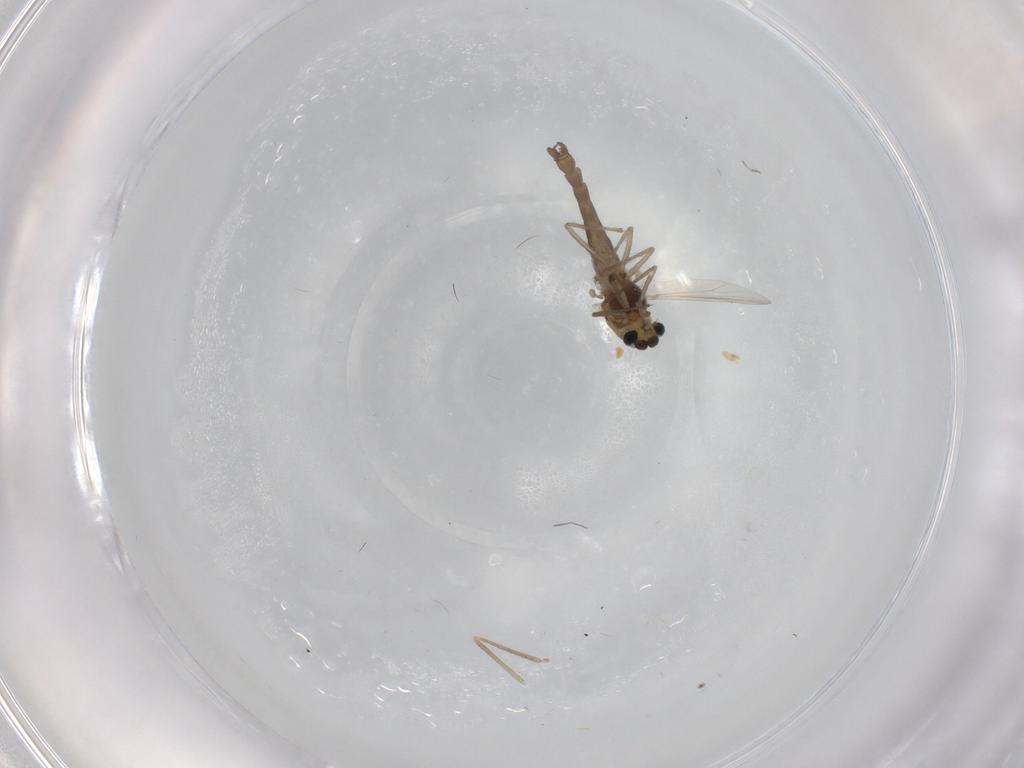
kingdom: Animalia
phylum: Arthropoda
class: Insecta
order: Diptera
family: Chironomidae
